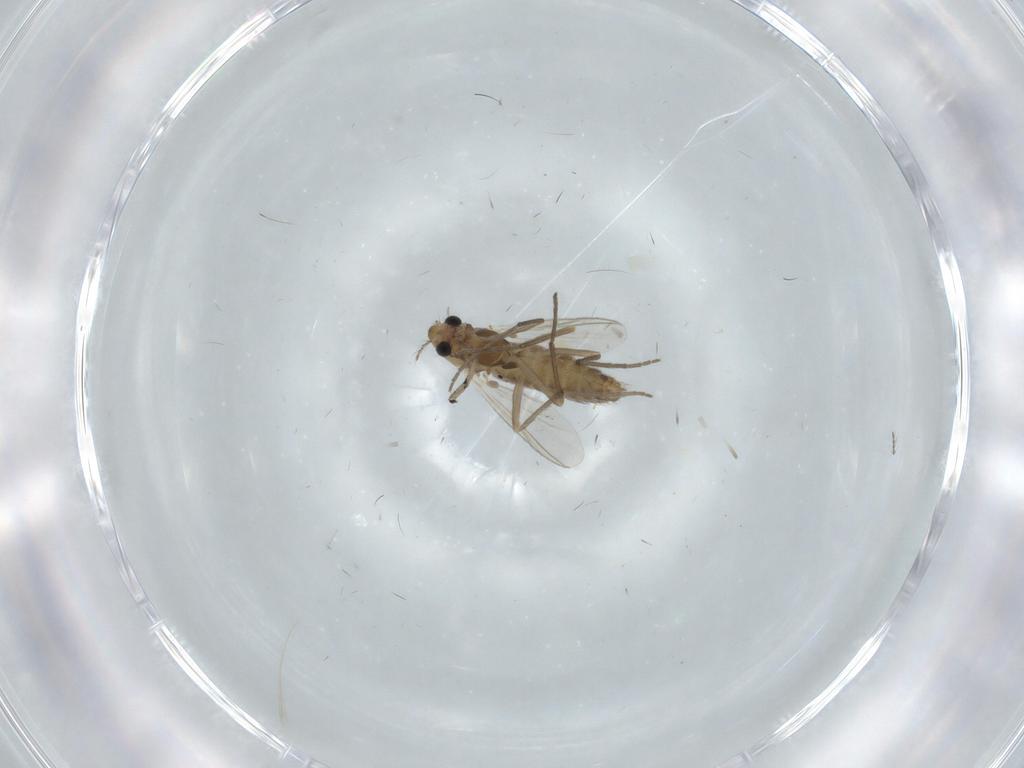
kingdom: Animalia
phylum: Arthropoda
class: Insecta
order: Diptera
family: Chironomidae
